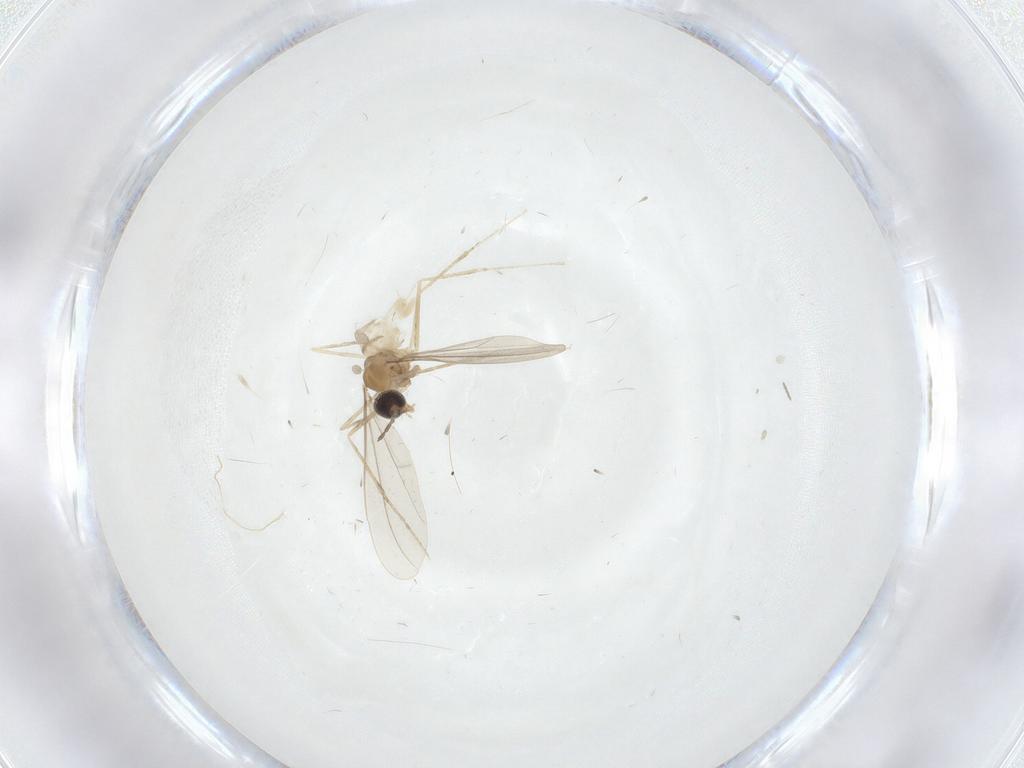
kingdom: Animalia
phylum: Arthropoda
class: Insecta
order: Diptera
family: Cecidomyiidae
